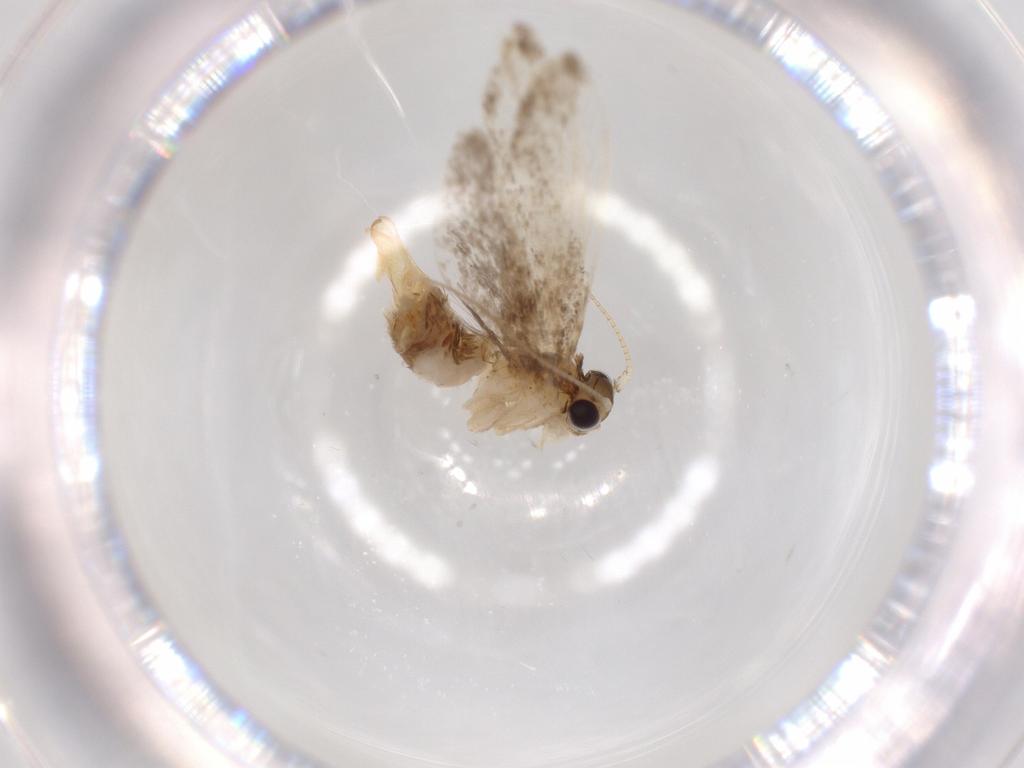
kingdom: Animalia
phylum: Arthropoda
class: Insecta
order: Lepidoptera
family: Tineidae
